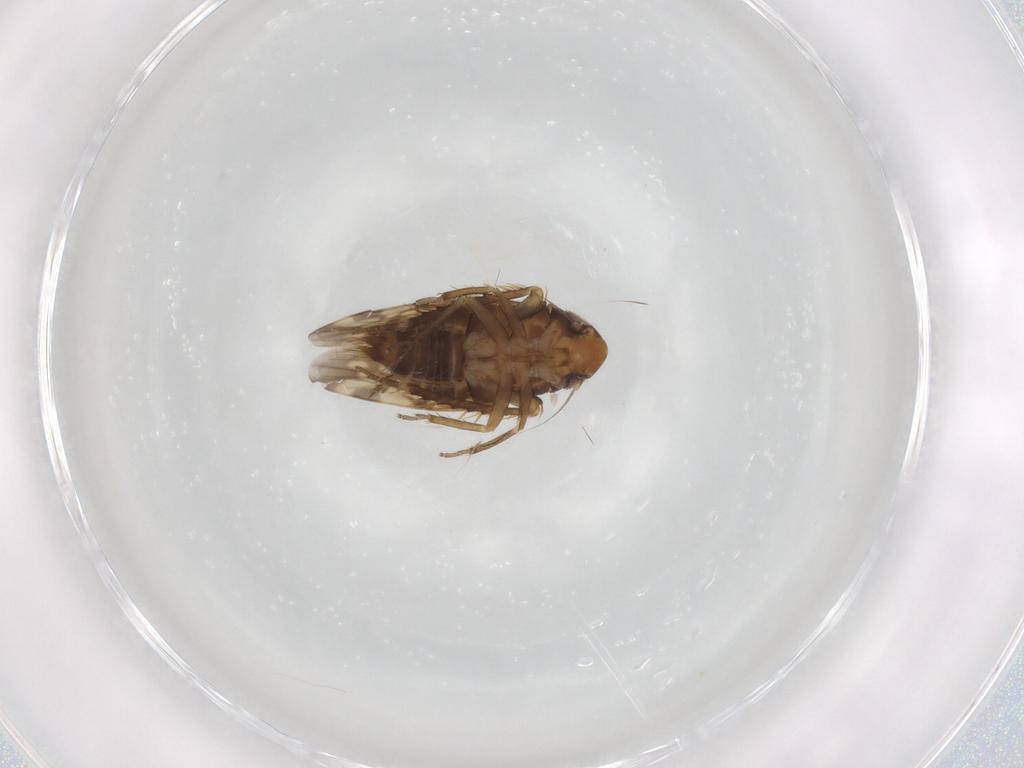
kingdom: Animalia
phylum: Arthropoda
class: Insecta
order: Hemiptera
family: Cicadellidae
